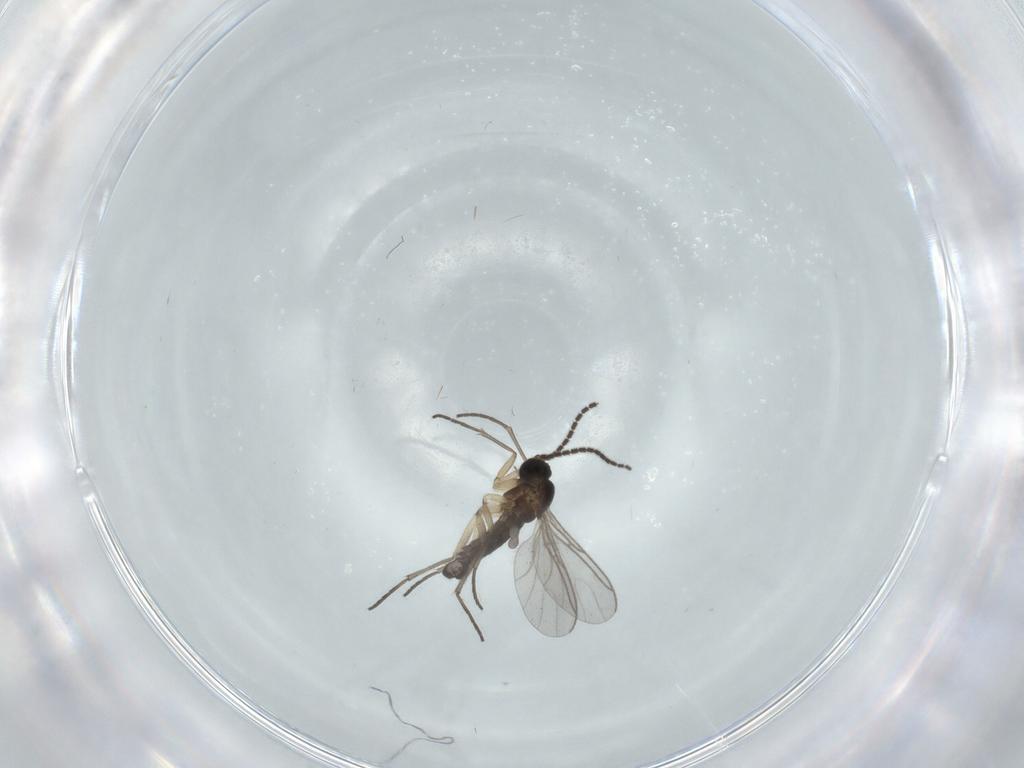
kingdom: Animalia
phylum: Arthropoda
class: Insecta
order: Diptera
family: Sciaridae
